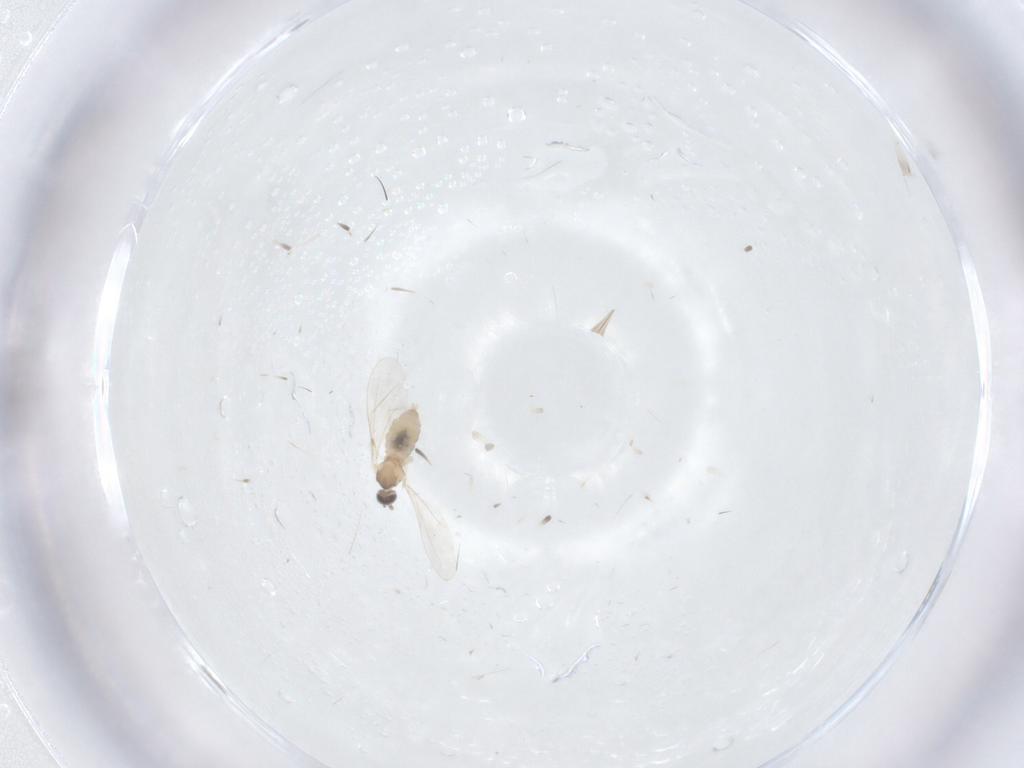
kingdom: Animalia
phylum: Arthropoda
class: Insecta
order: Diptera
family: Cecidomyiidae
